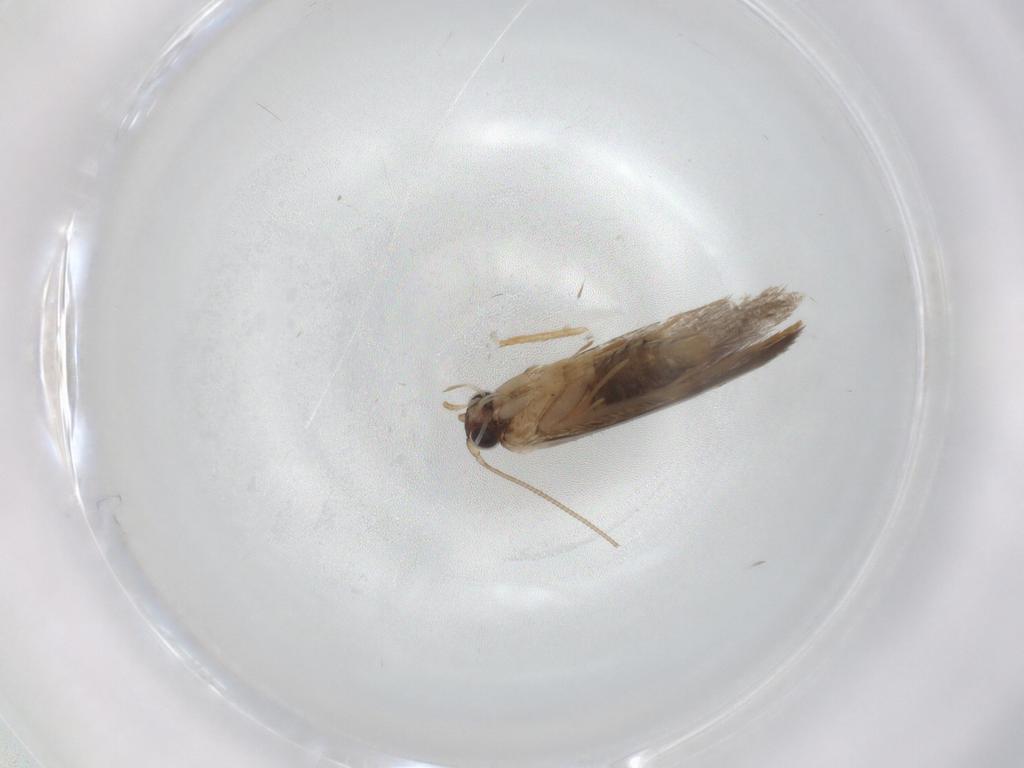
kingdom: Animalia
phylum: Arthropoda
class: Insecta
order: Lepidoptera
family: Tineidae
